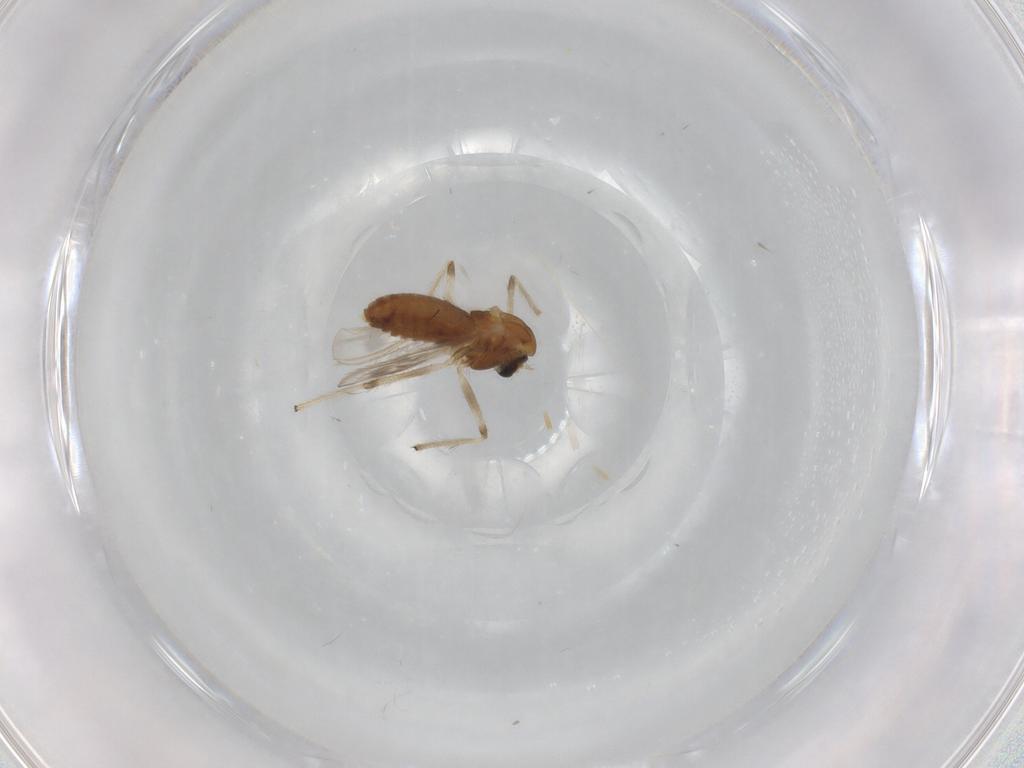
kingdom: Animalia
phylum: Arthropoda
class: Insecta
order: Diptera
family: Chironomidae
